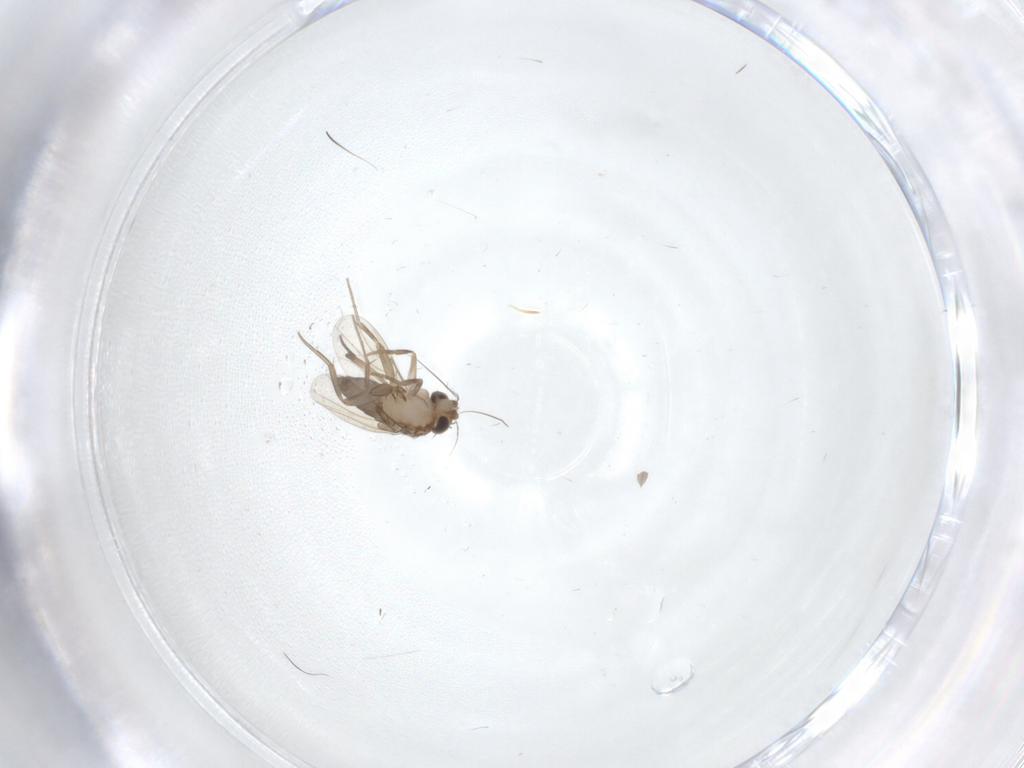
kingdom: Animalia
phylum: Arthropoda
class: Insecta
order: Diptera
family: Phoridae
